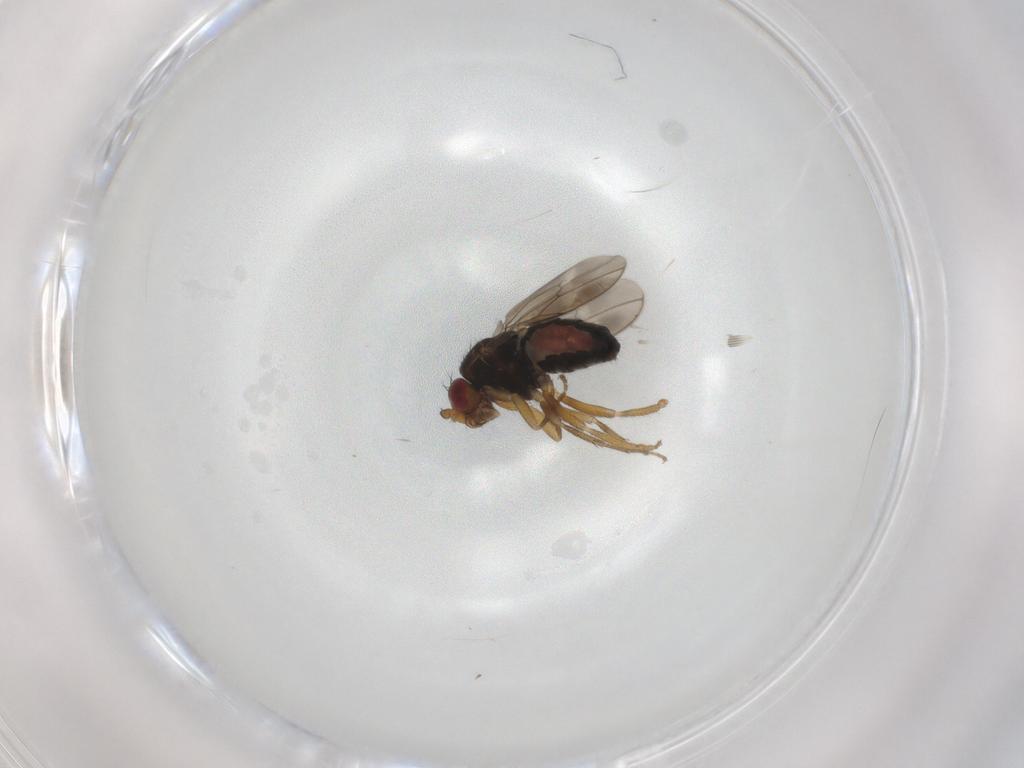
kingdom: Animalia
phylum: Arthropoda
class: Insecta
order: Diptera
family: Sphaeroceridae
